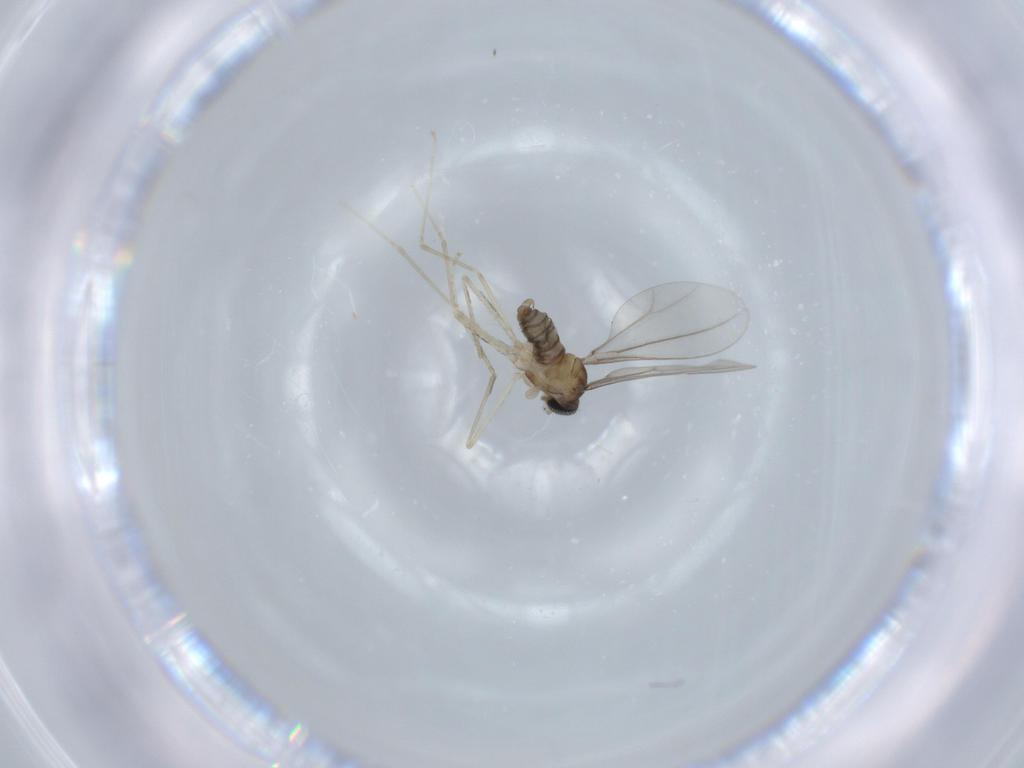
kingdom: Animalia
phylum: Arthropoda
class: Insecta
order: Diptera
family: Cecidomyiidae
